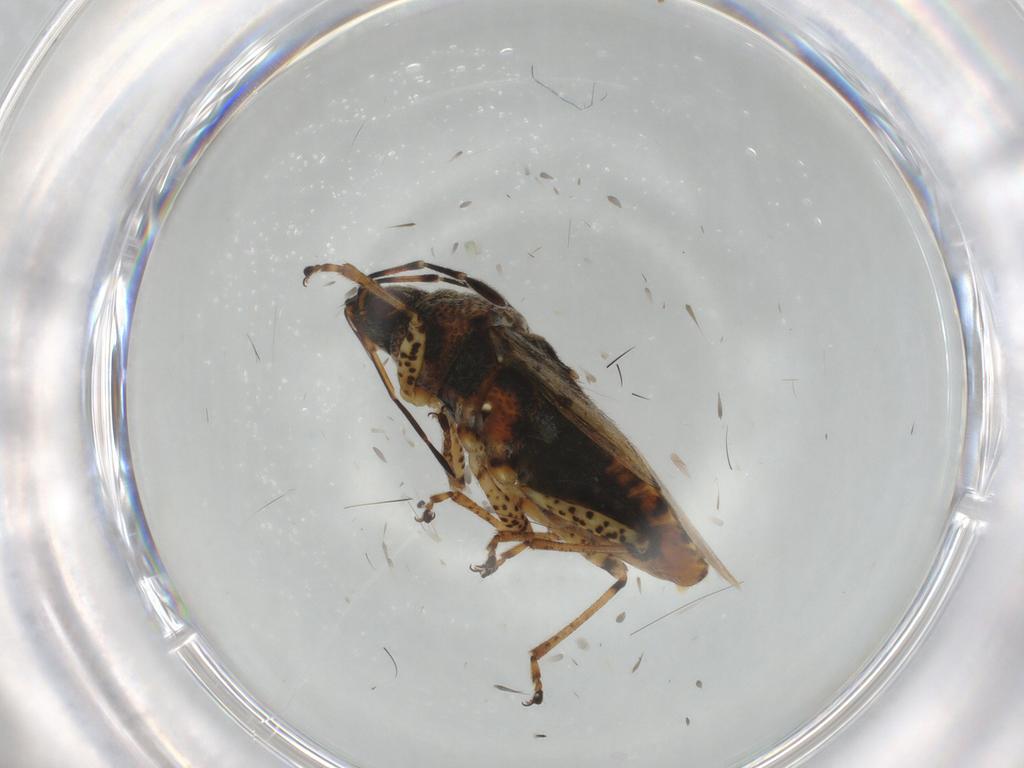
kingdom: Animalia
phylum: Arthropoda
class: Insecta
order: Hemiptera
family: Lygaeidae
